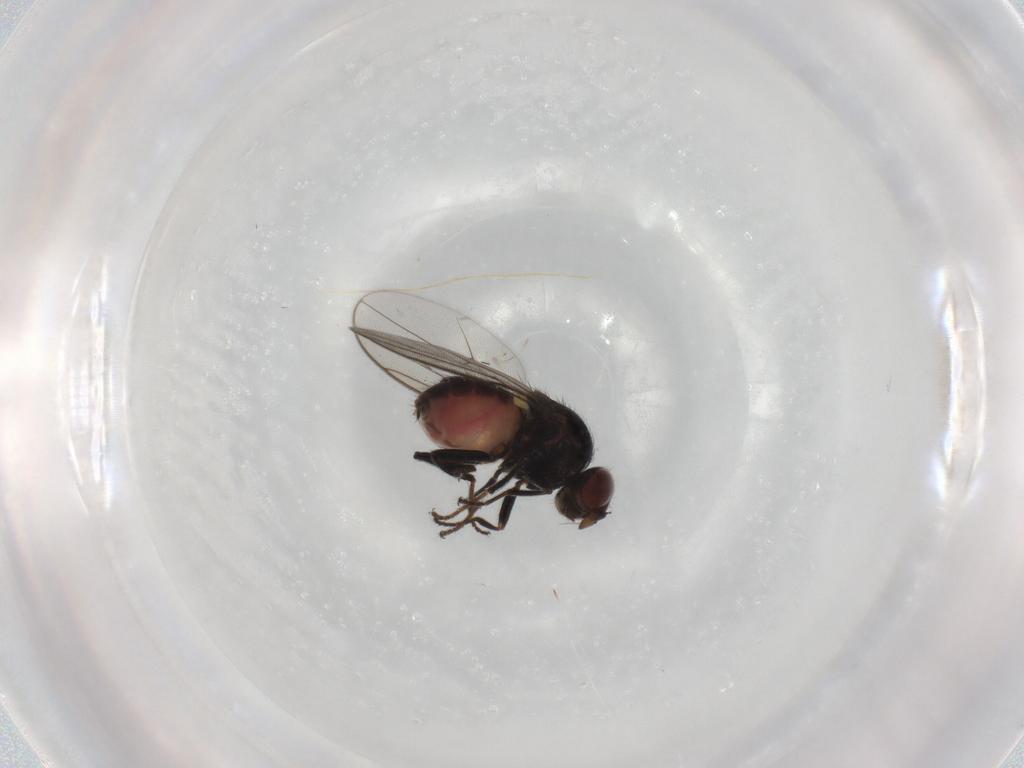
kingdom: Animalia
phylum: Arthropoda
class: Insecta
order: Diptera
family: Chloropidae
